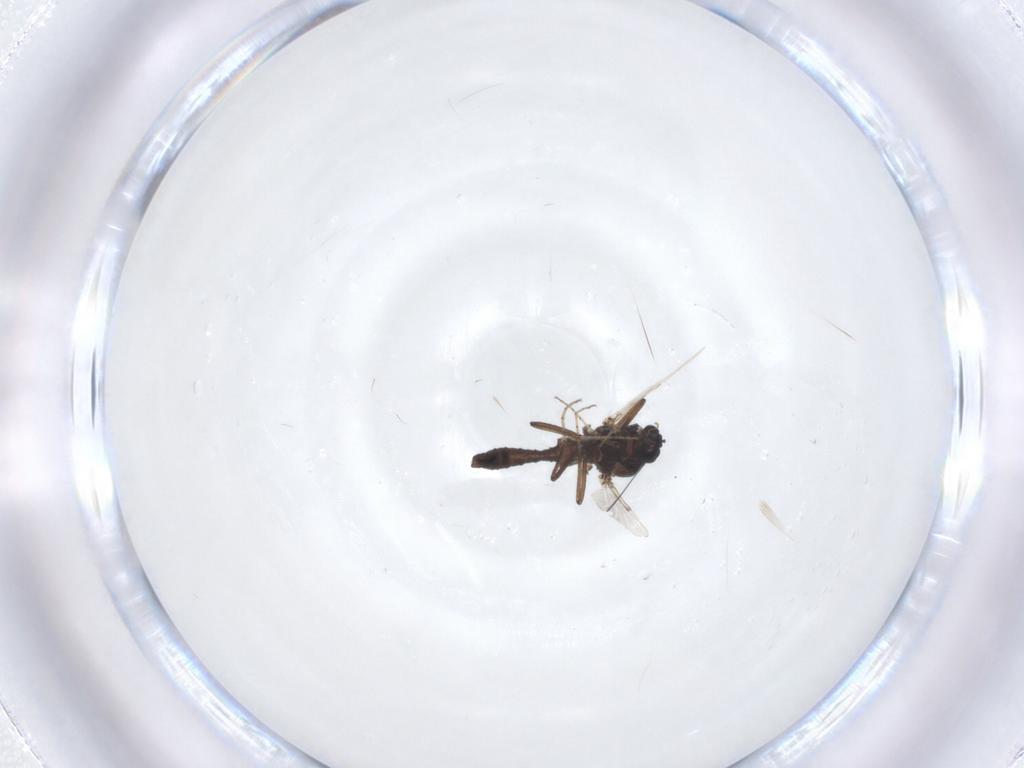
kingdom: Animalia
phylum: Arthropoda
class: Insecta
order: Diptera
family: Ceratopogonidae
